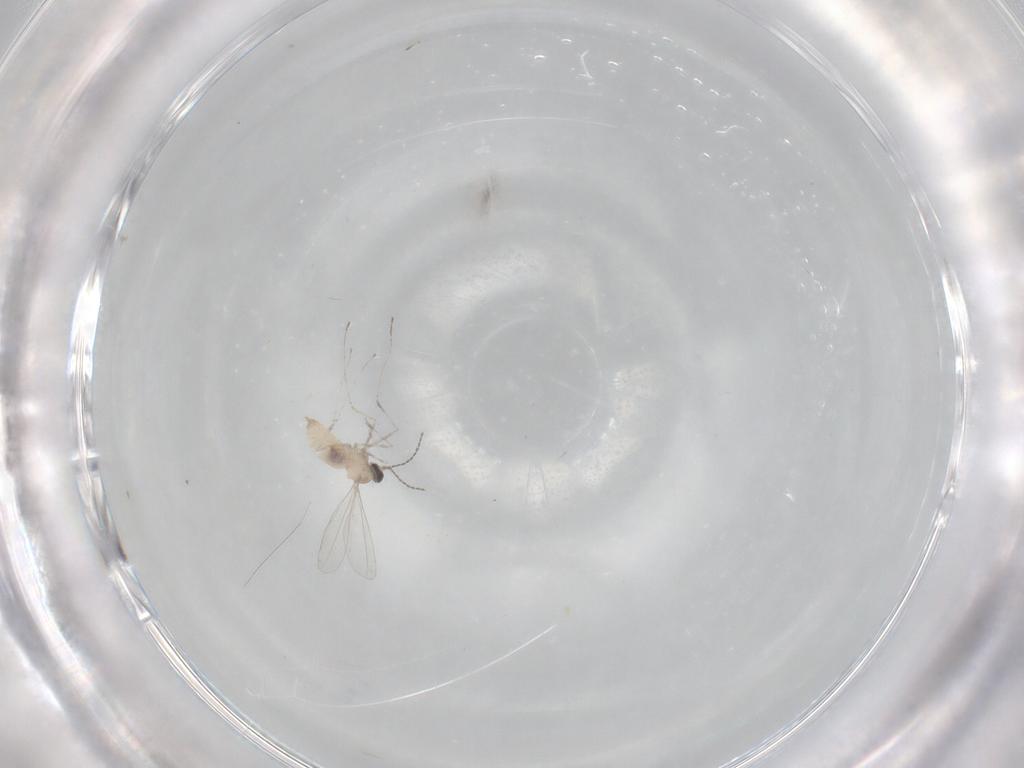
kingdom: Animalia
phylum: Arthropoda
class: Insecta
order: Diptera
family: Cecidomyiidae
